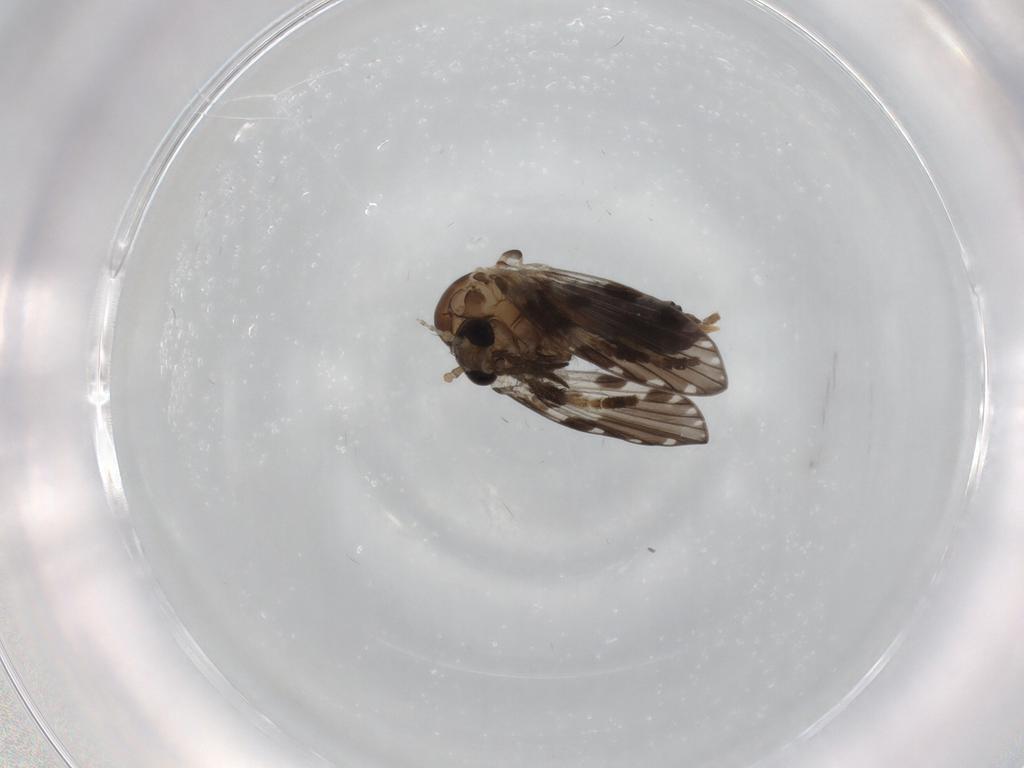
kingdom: Animalia
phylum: Arthropoda
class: Insecta
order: Diptera
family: Psychodidae
